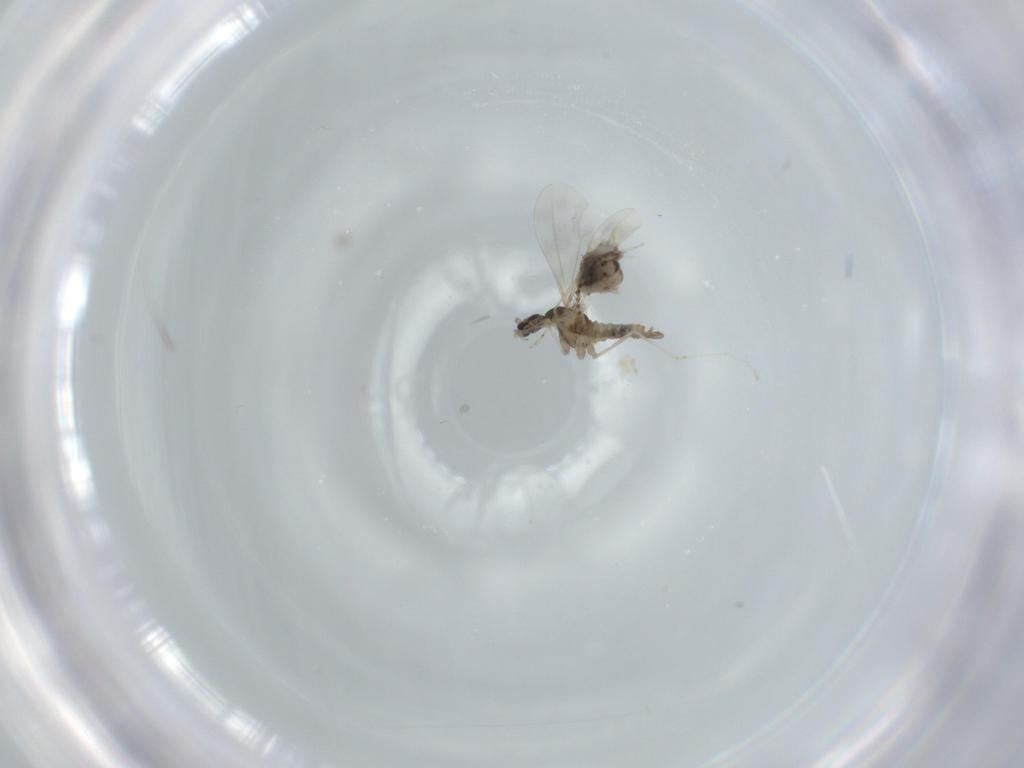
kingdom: Animalia
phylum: Arthropoda
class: Insecta
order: Diptera
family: Cecidomyiidae
